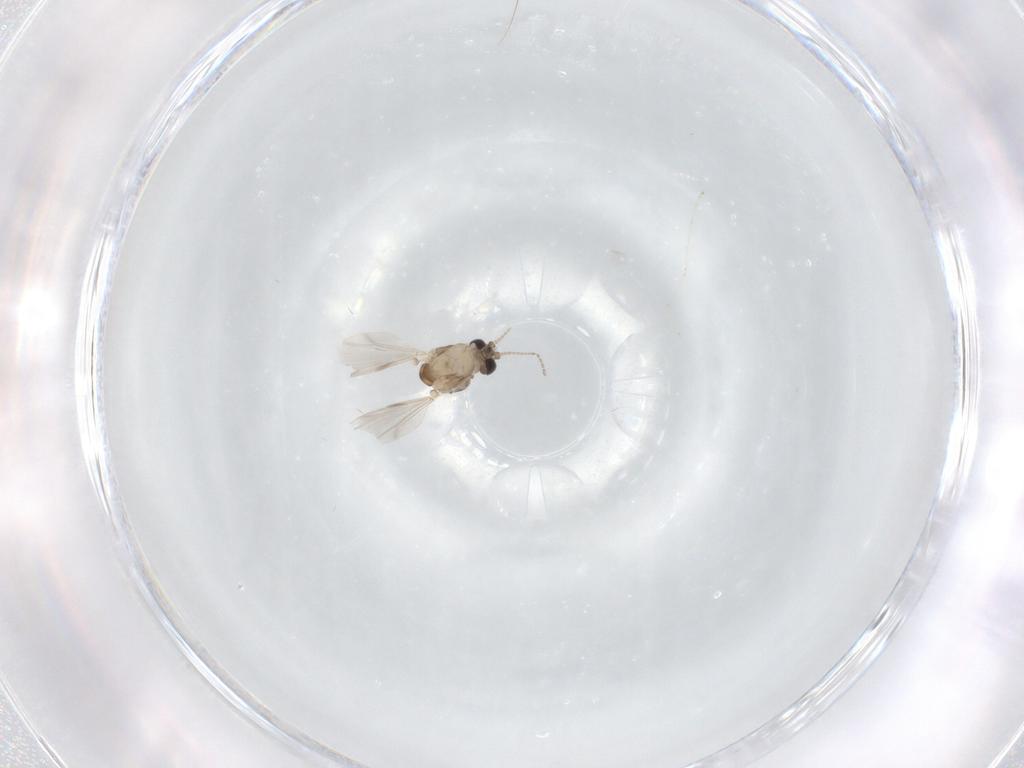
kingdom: Animalia
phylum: Arthropoda
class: Insecta
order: Diptera
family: Ceratopogonidae
